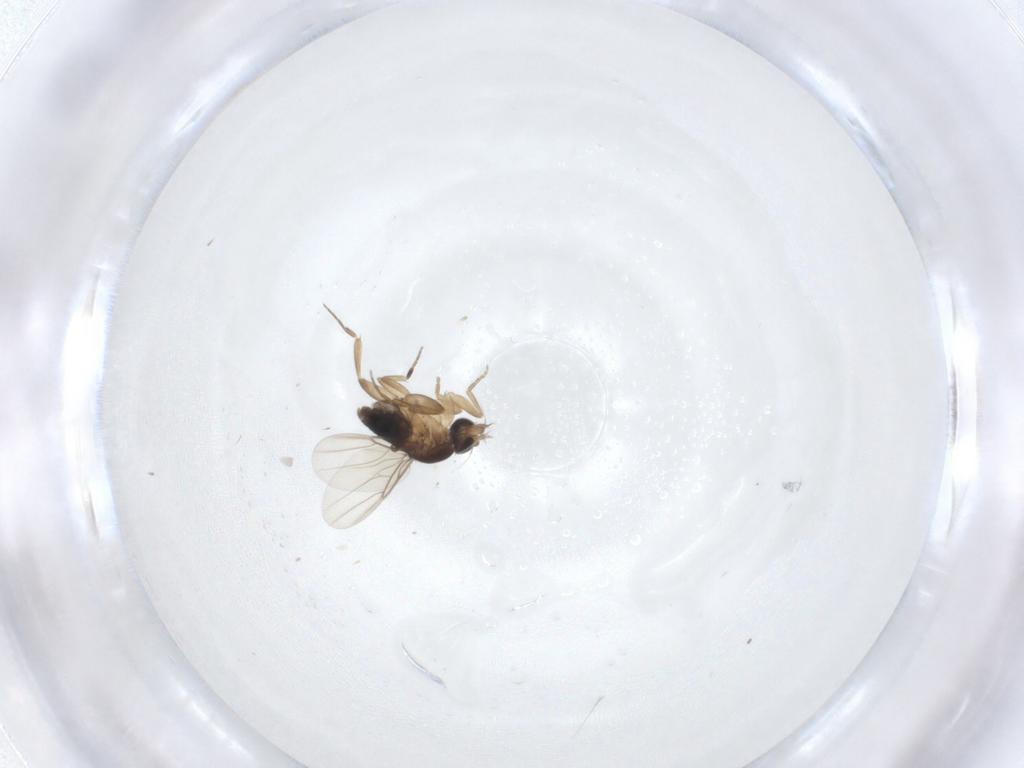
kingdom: Animalia
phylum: Arthropoda
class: Insecta
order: Diptera
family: Phoridae
